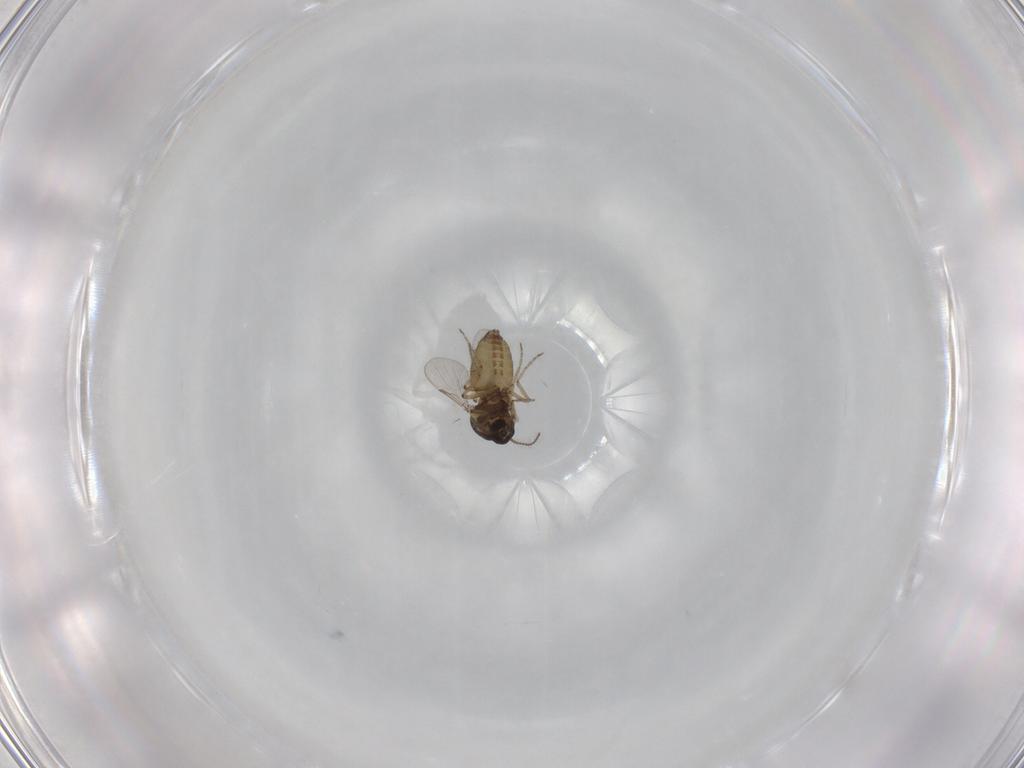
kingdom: Animalia
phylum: Arthropoda
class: Insecta
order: Diptera
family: Ceratopogonidae
